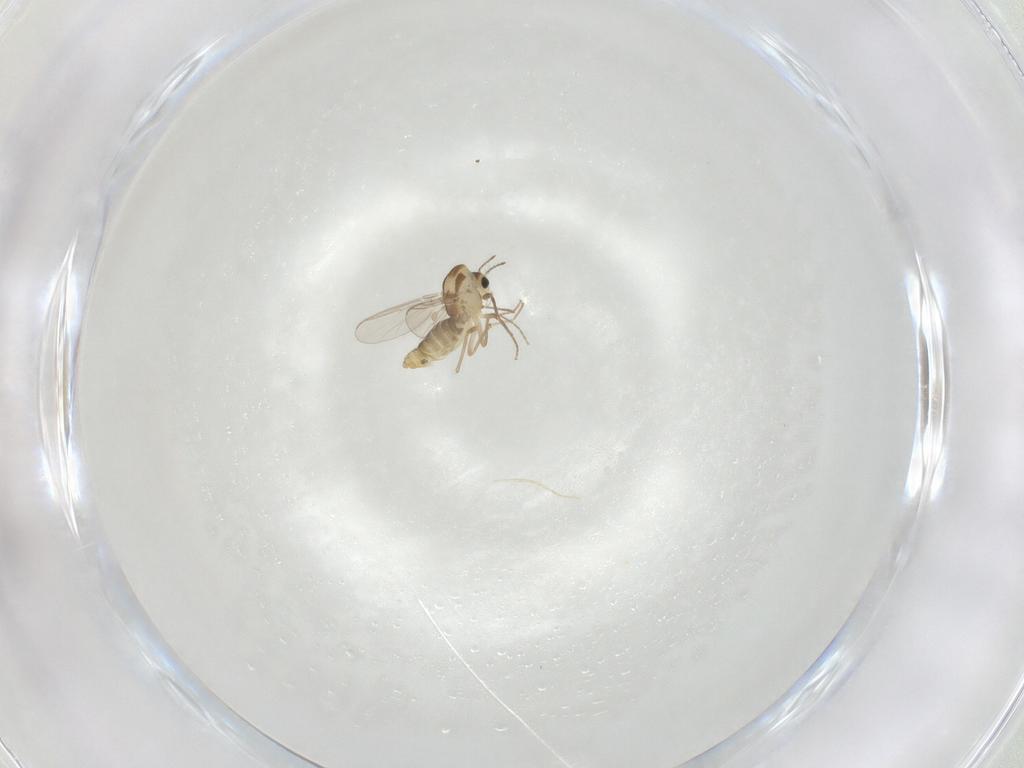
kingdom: Animalia
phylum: Arthropoda
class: Insecta
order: Diptera
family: Chironomidae
